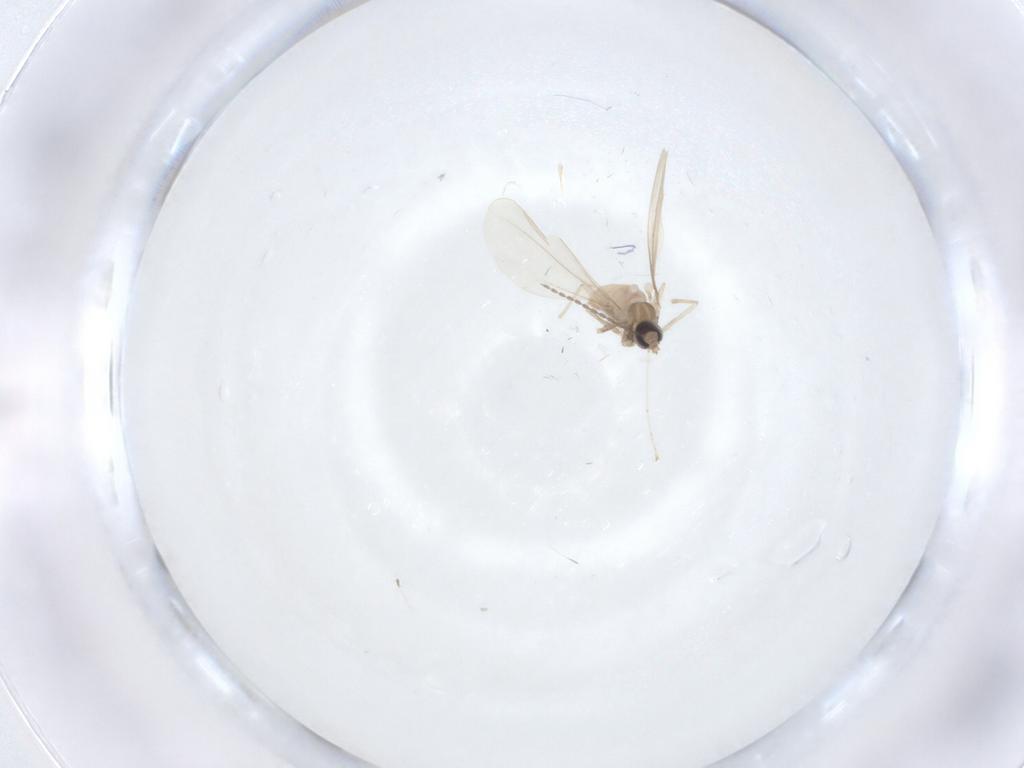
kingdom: Animalia
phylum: Arthropoda
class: Insecta
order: Diptera
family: Cecidomyiidae
